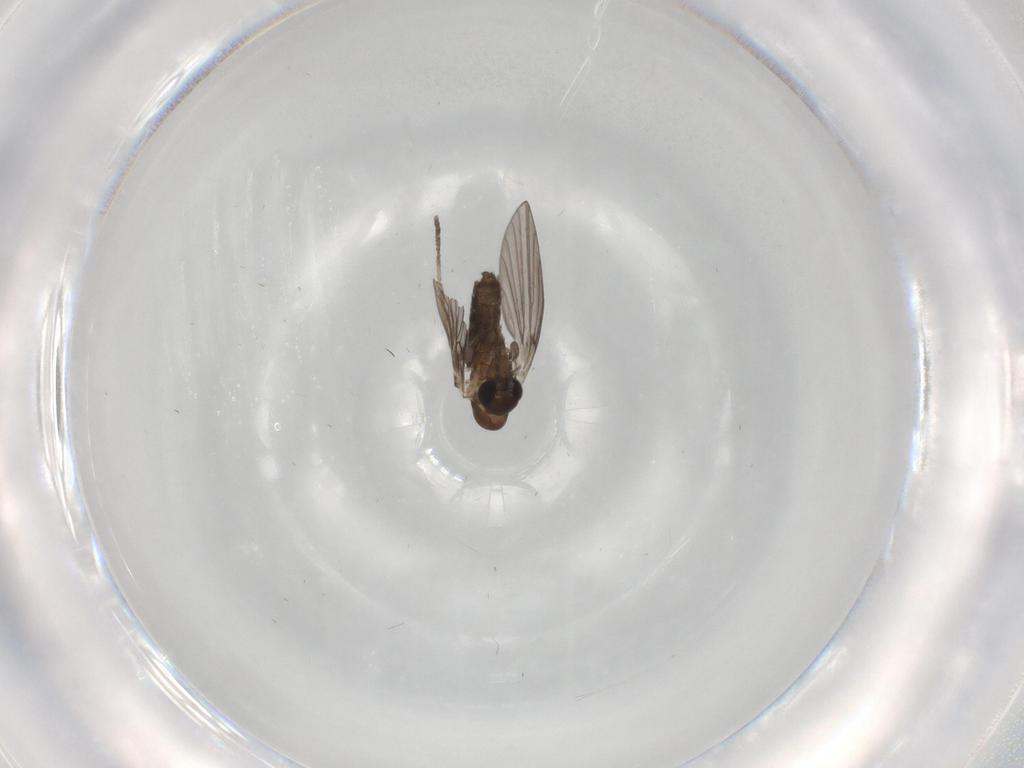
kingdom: Animalia
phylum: Arthropoda
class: Insecta
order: Diptera
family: Psychodidae
